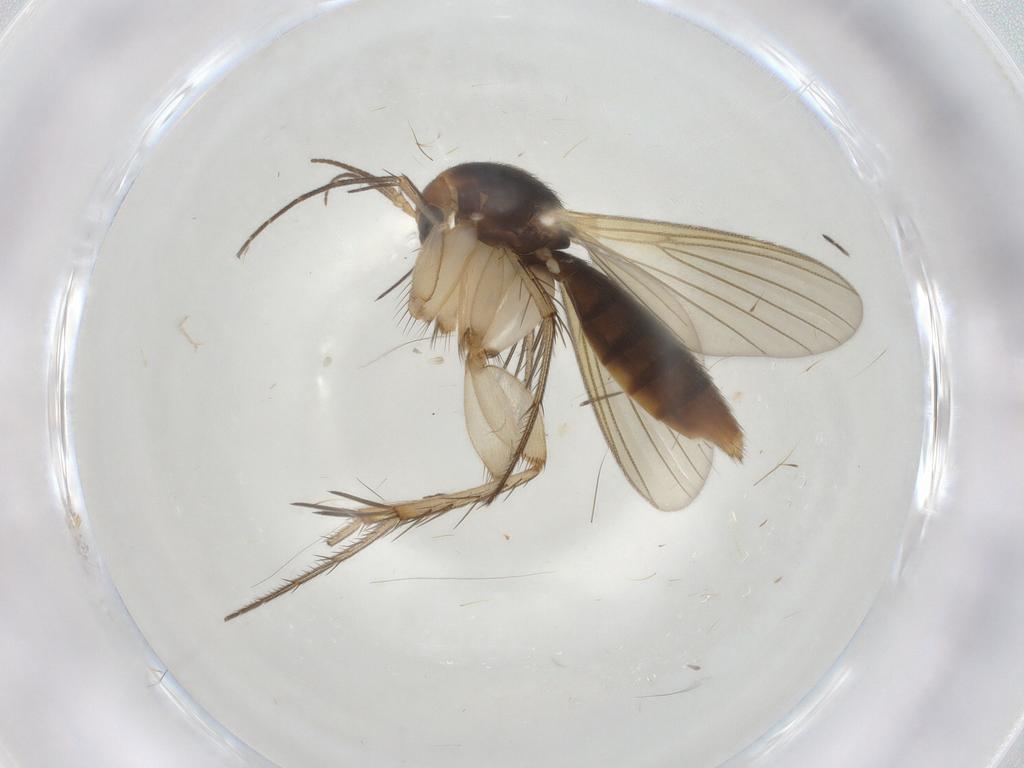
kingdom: Animalia
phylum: Arthropoda
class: Insecta
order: Diptera
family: Mycetophilidae
